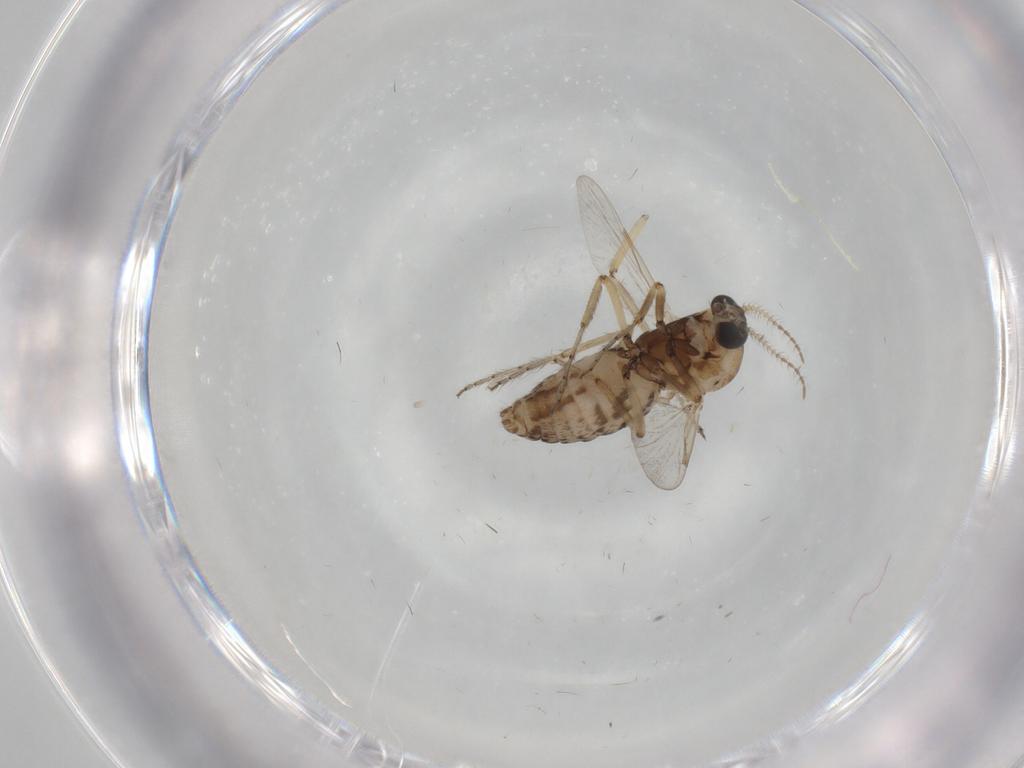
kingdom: Animalia
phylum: Arthropoda
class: Insecta
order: Diptera
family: Ceratopogonidae
